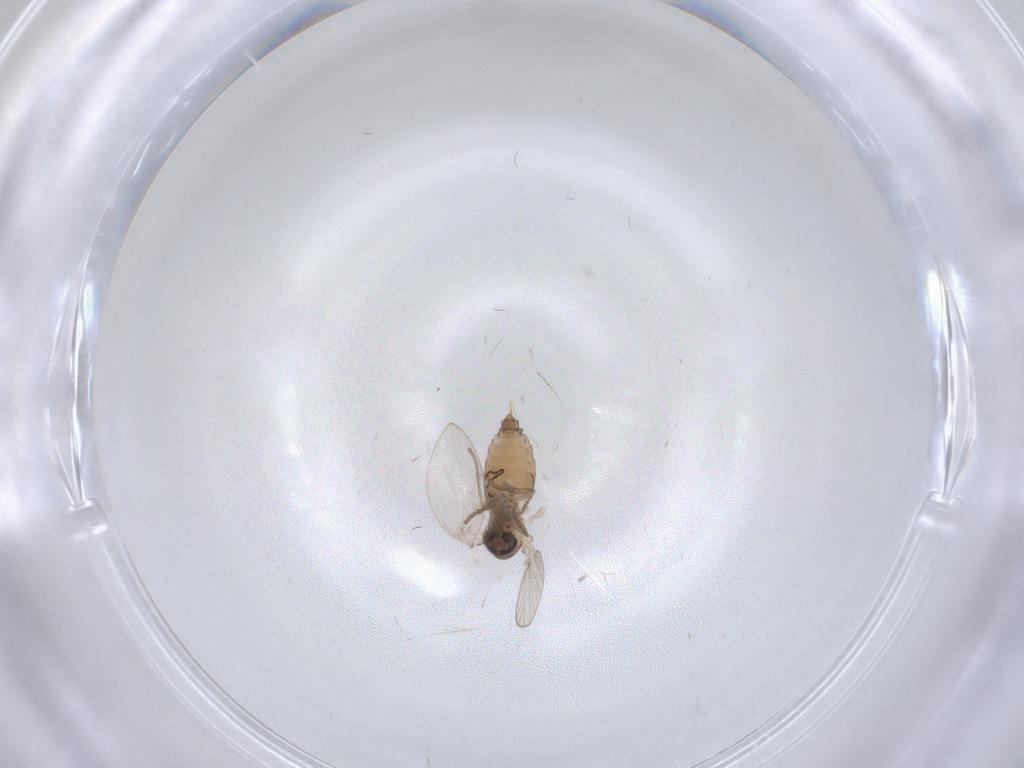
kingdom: Animalia
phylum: Arthropoda
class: Insecta
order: Diptera
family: Psychodidae
